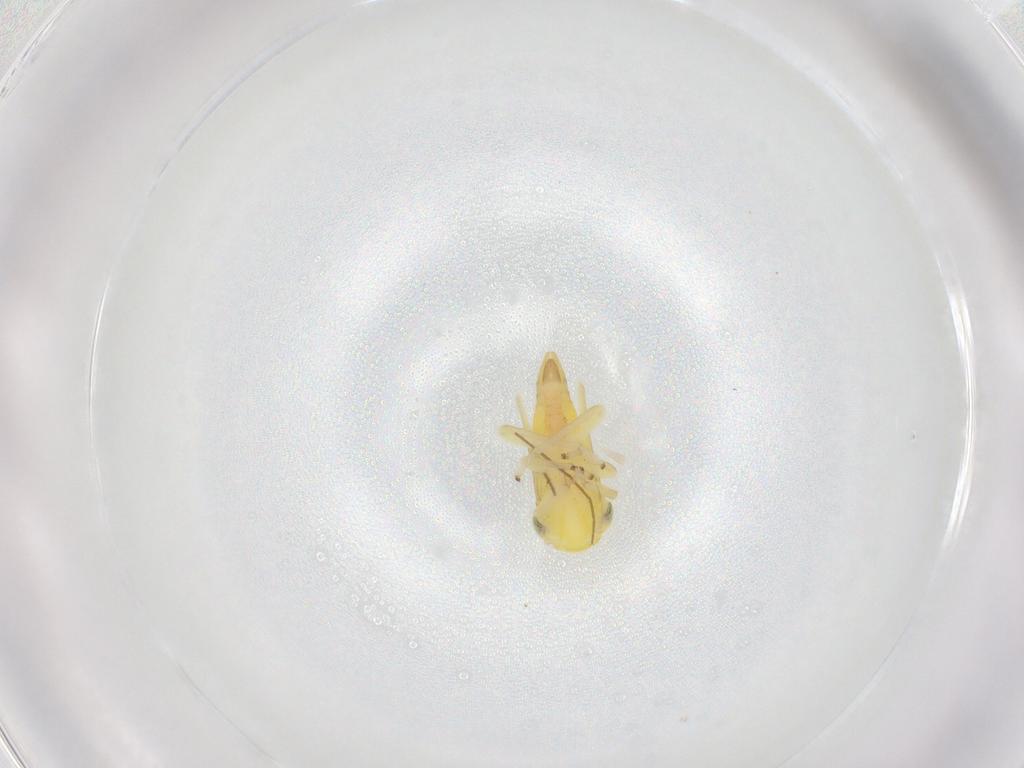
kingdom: Animalia
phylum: Arthropoda
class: Insecta
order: Hemiptera
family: Cicadellidae
